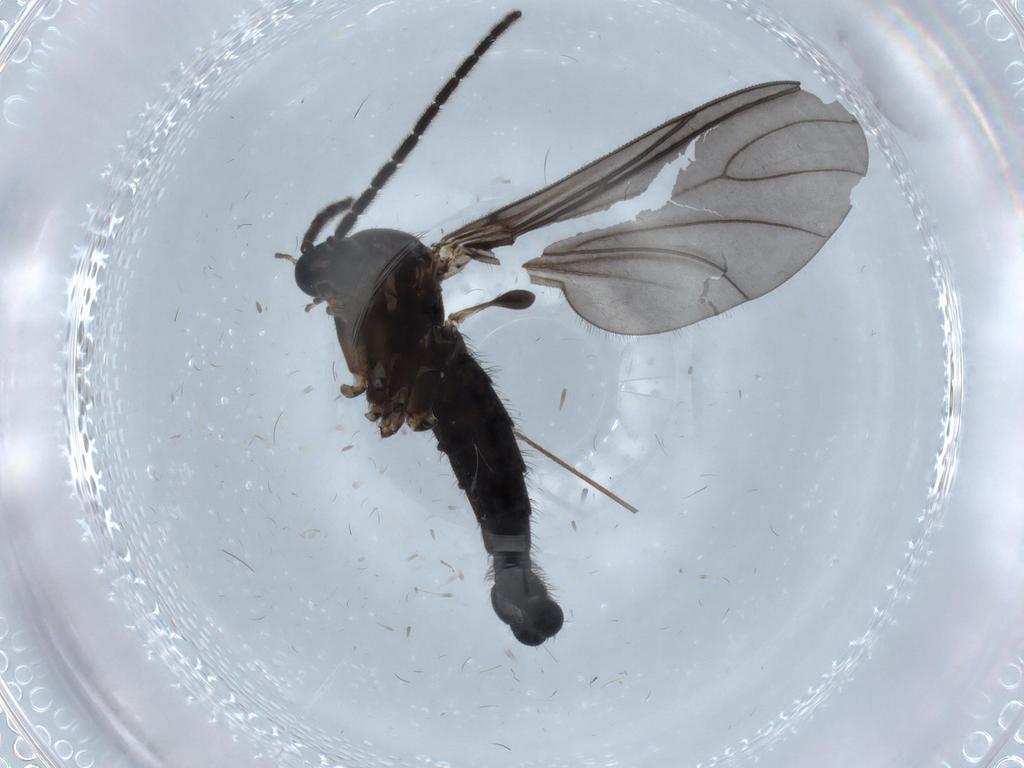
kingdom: Animalia
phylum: Arthropoda
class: Insecta
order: Diptera
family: Sciaridae
